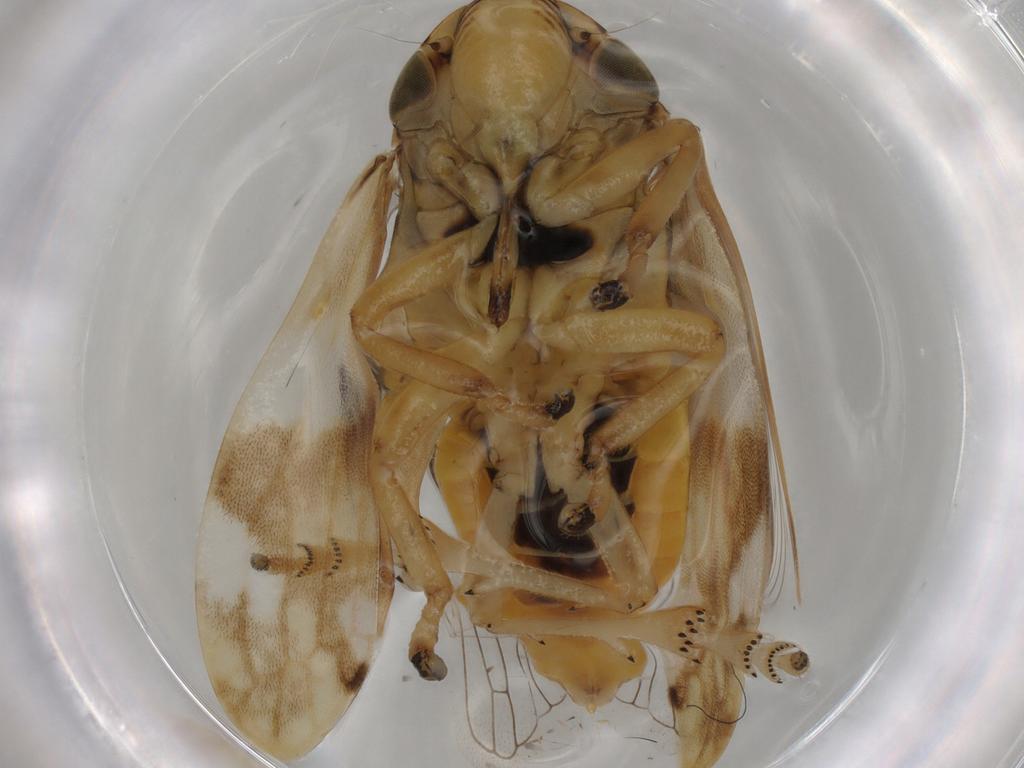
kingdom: Animalia
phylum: Arthropoda
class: Insecta
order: Hemiptera
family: Aphrophoridae
